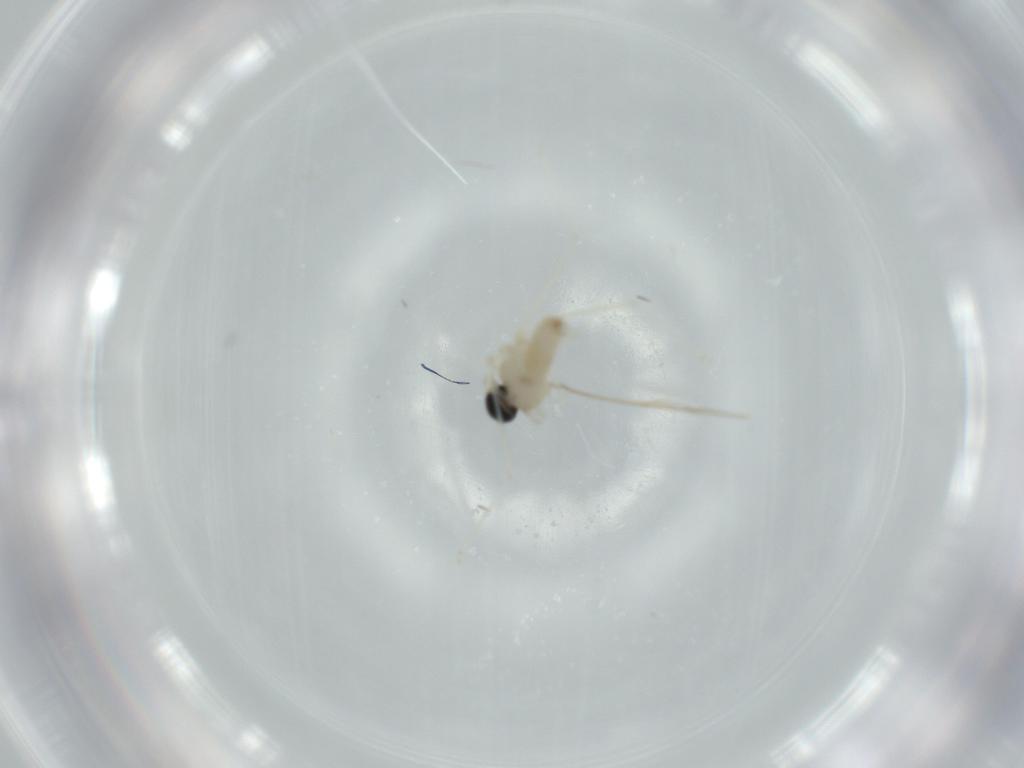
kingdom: Animalia
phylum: Arthropoda
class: Insecta
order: Diptera
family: Cecidomyiidae
